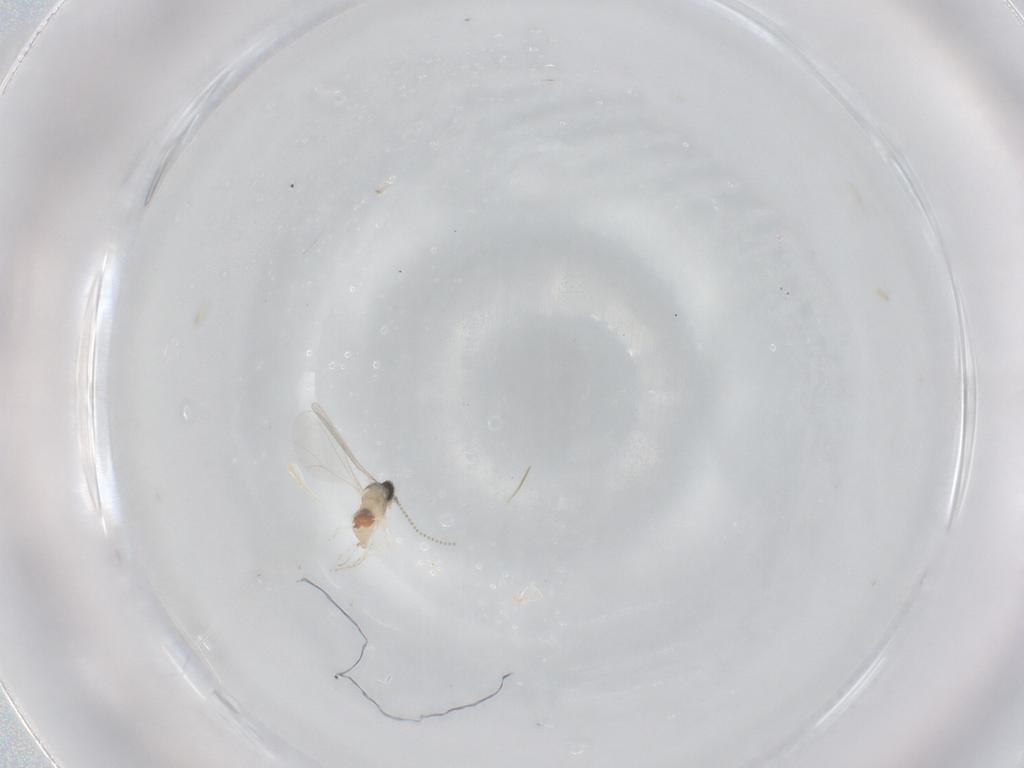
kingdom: Animalia
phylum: Arthropoda
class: Insecta
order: Diptera
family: Cecidomyiidae
